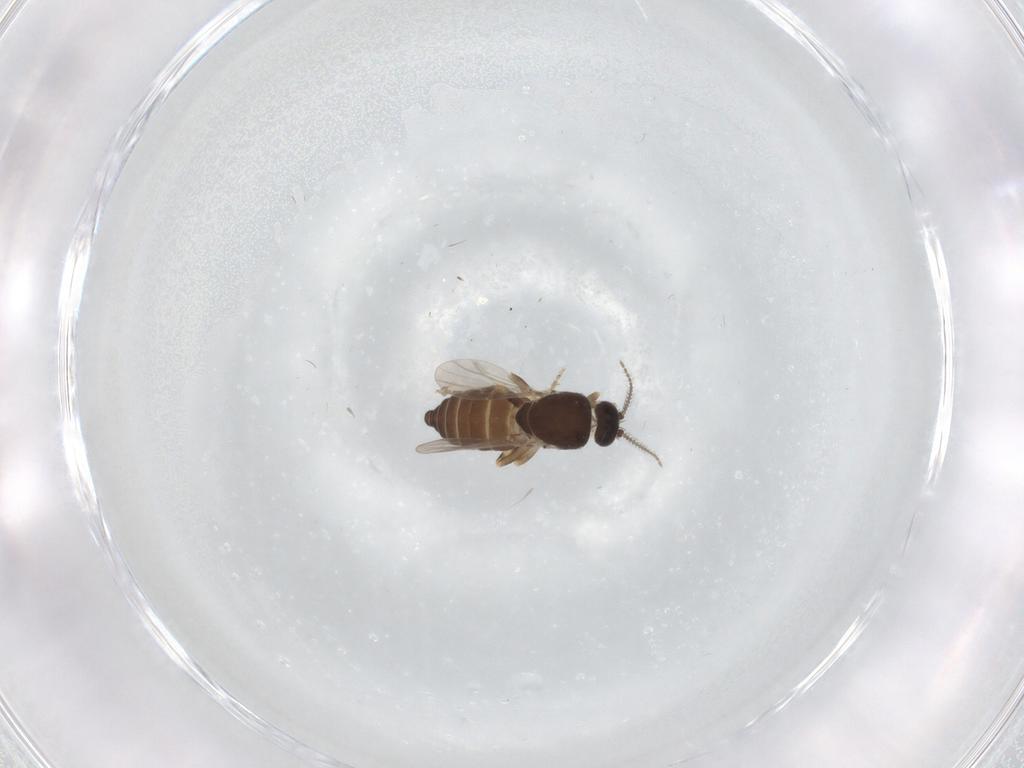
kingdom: Animalia
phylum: Arthropoda
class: Insecta
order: Diptera
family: Ceratopogonidae
